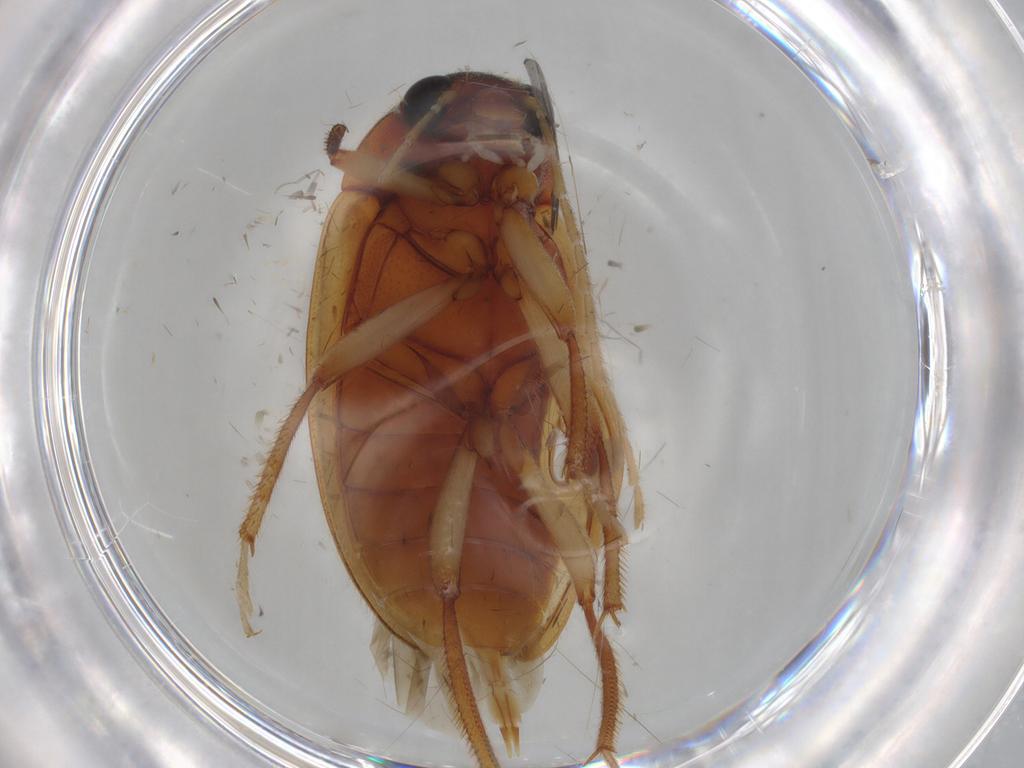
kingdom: Animalia
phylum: Arthropoda
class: Insecta
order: Coleoptera
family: Ptilodactylidae
